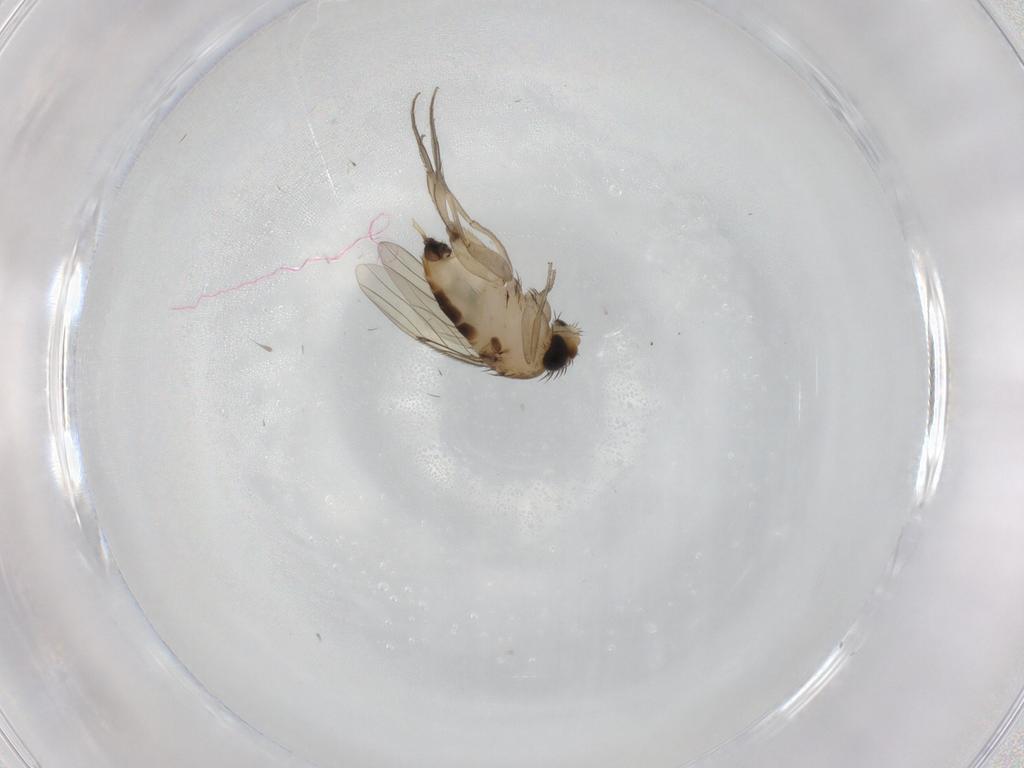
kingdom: Animalia
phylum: Arthropoda
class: Insecta
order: Diptera
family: Phoridae
